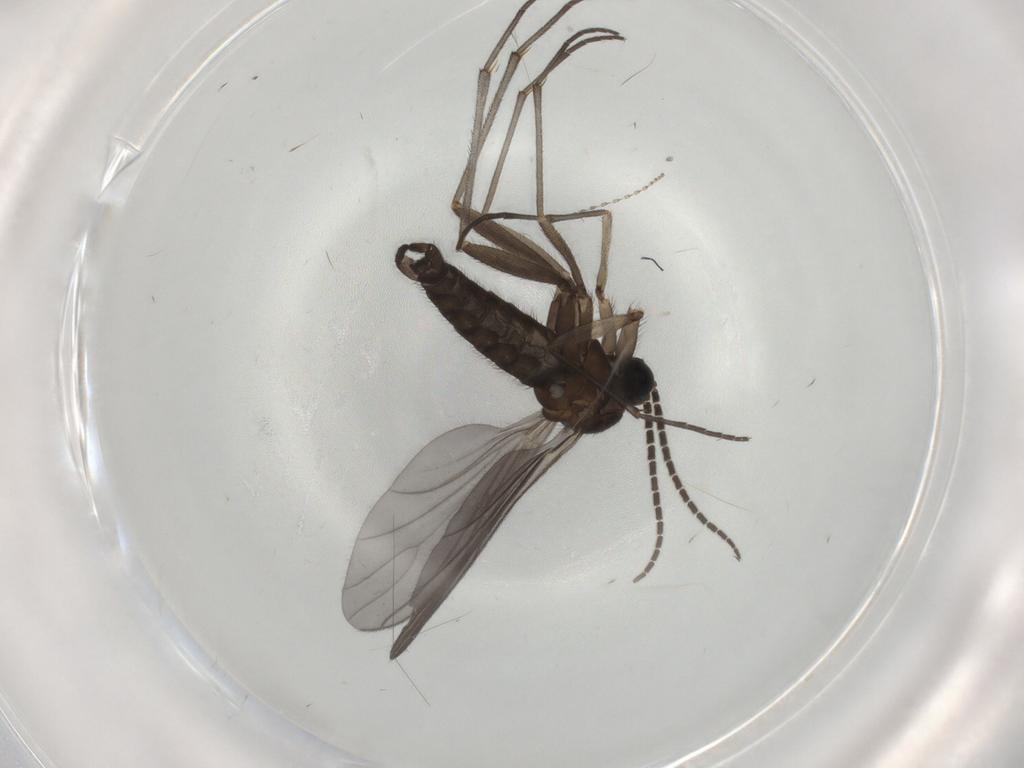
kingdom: Animalia
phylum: Arthropoda
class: Insecta
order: Diptera
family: Sciaridae
